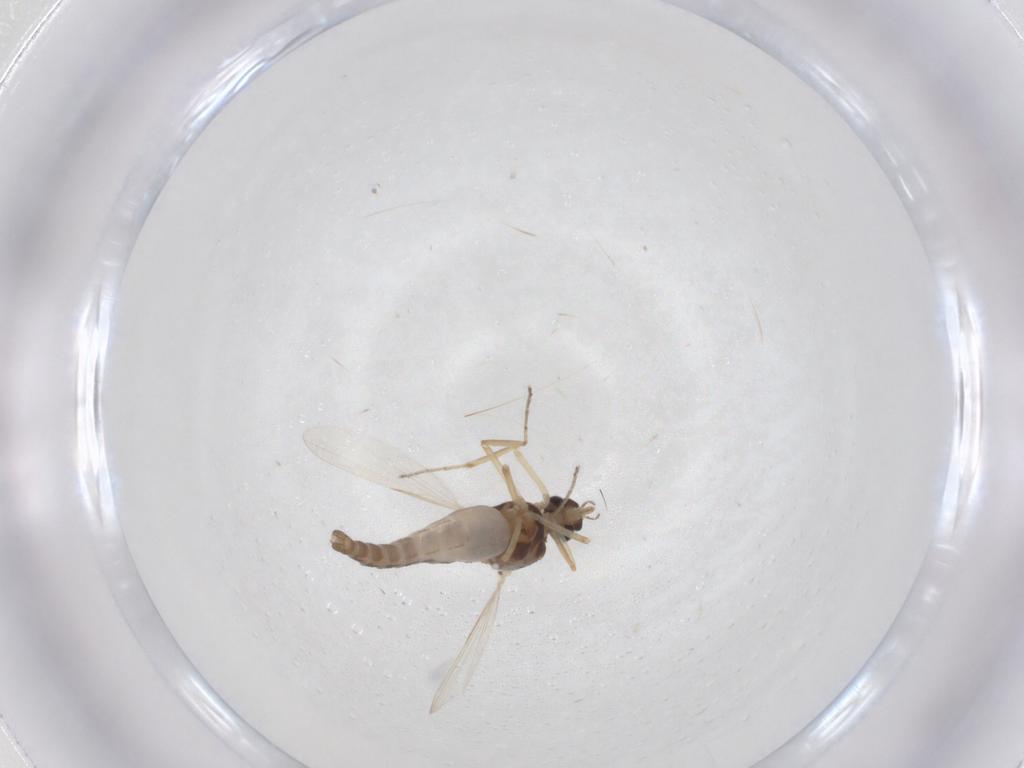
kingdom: Animalia
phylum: Arthropoda
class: Insecta
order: Diptera
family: Ceratopogonidae
